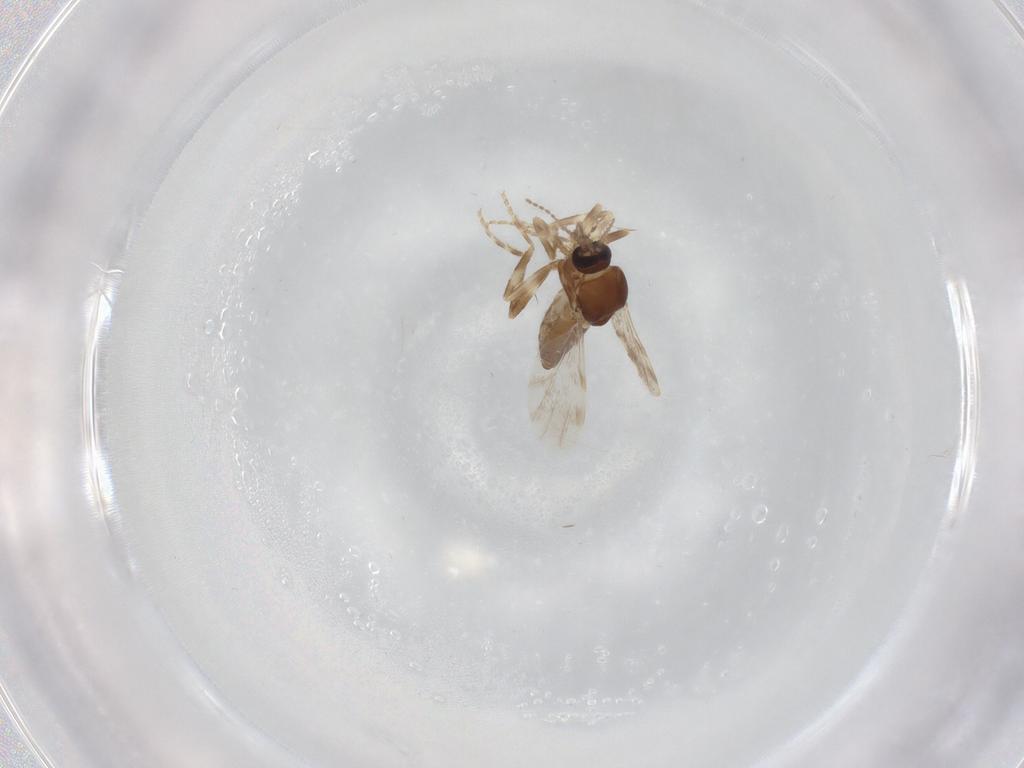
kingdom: Animalia
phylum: Arthropoda
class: Insecta
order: Diptera
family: Ceratopogonidae
